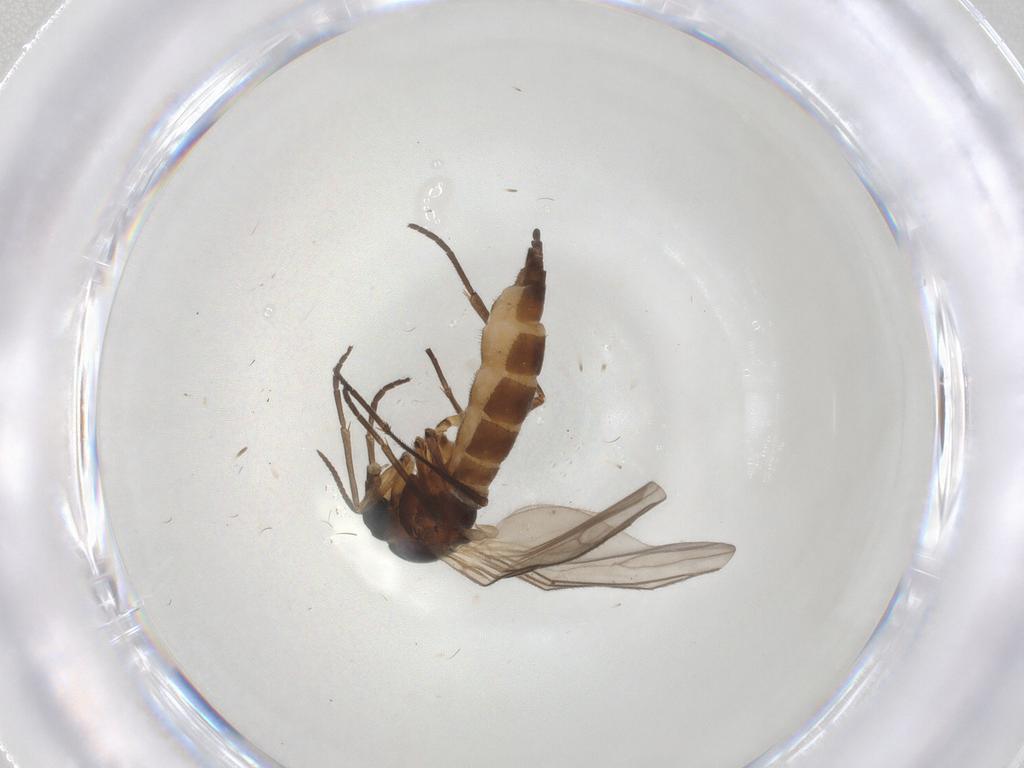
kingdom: Animalia
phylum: Arthropoda
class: Insecta
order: Diptera
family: Sciaridae
